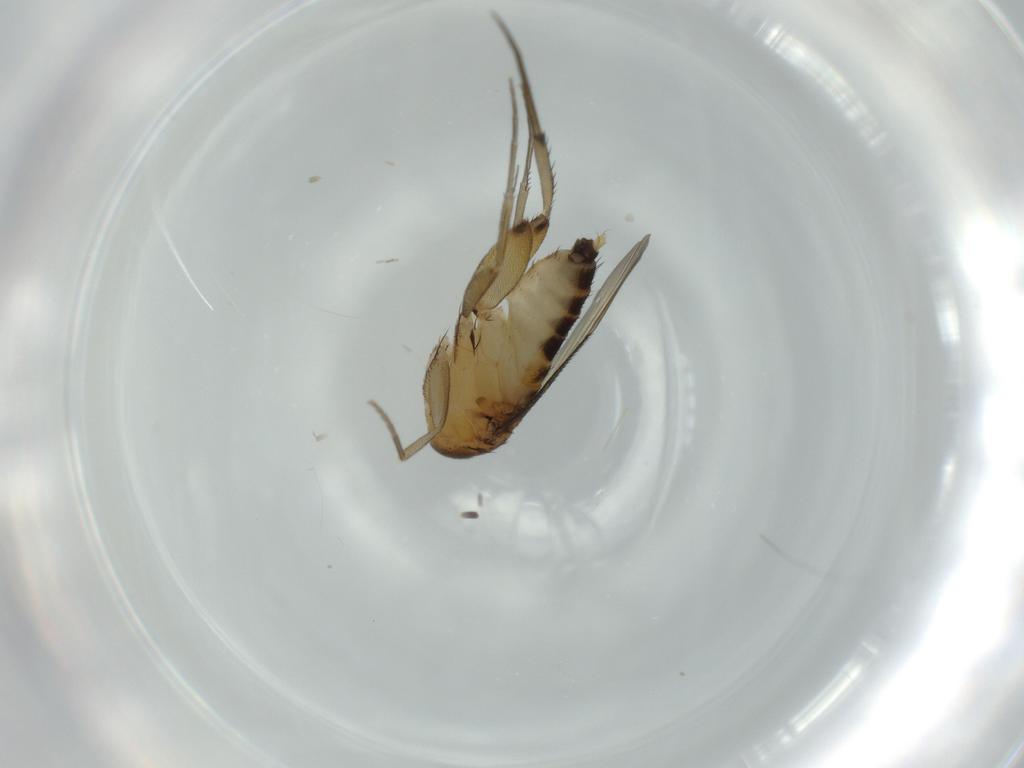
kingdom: Animalia
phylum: Arthropoda
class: Insecta
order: Diptera
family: Phoridae
